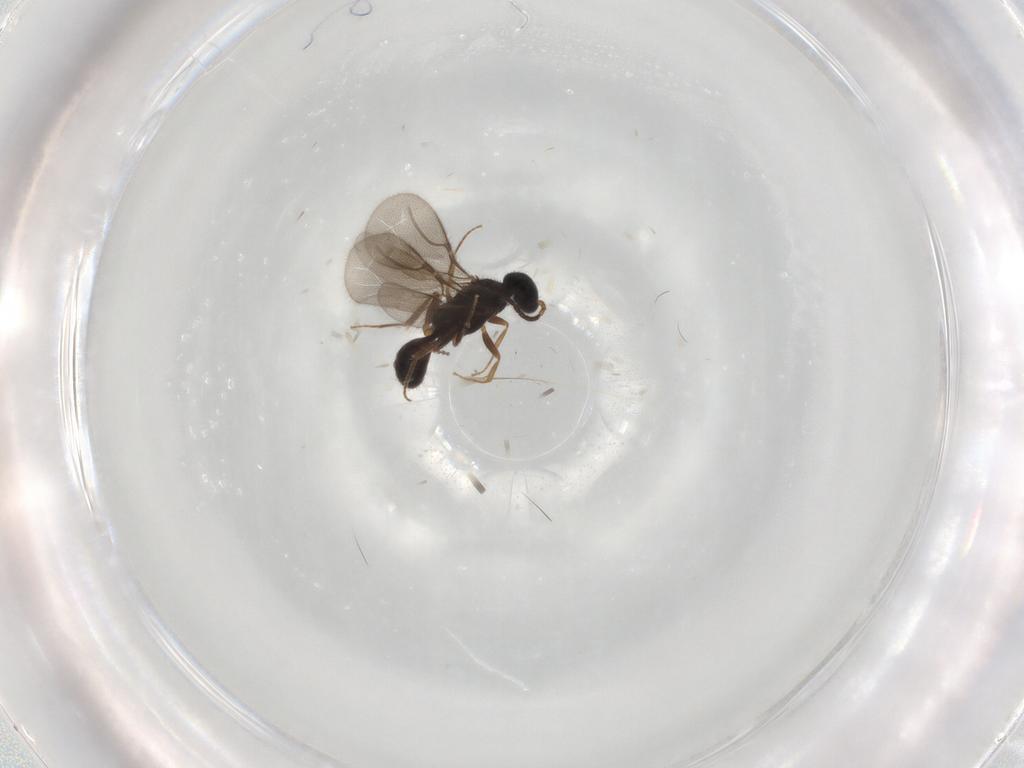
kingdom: Animalia
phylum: Arthropoda
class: Insecta
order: Hymenoptera
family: Bethylidae
